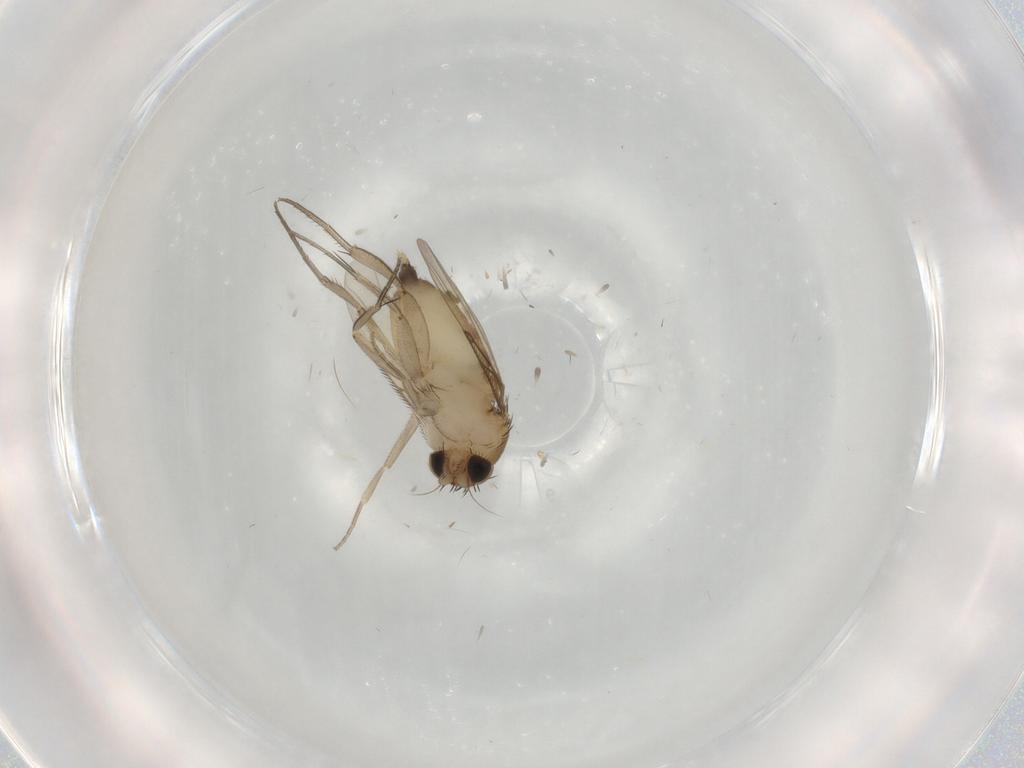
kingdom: Animalia
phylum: Arthropoda
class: Insecta
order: Diptera
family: Phoridae
